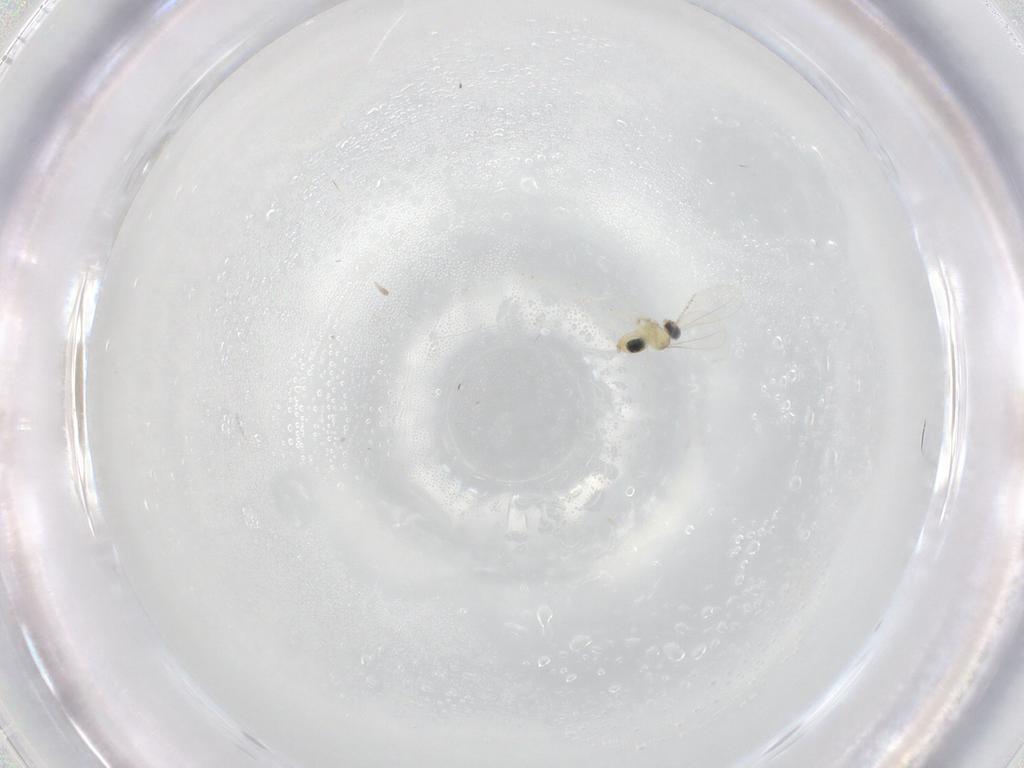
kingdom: Animalia
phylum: Arthropoda
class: Insecta
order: Diptera
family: Cecidomyiidae
